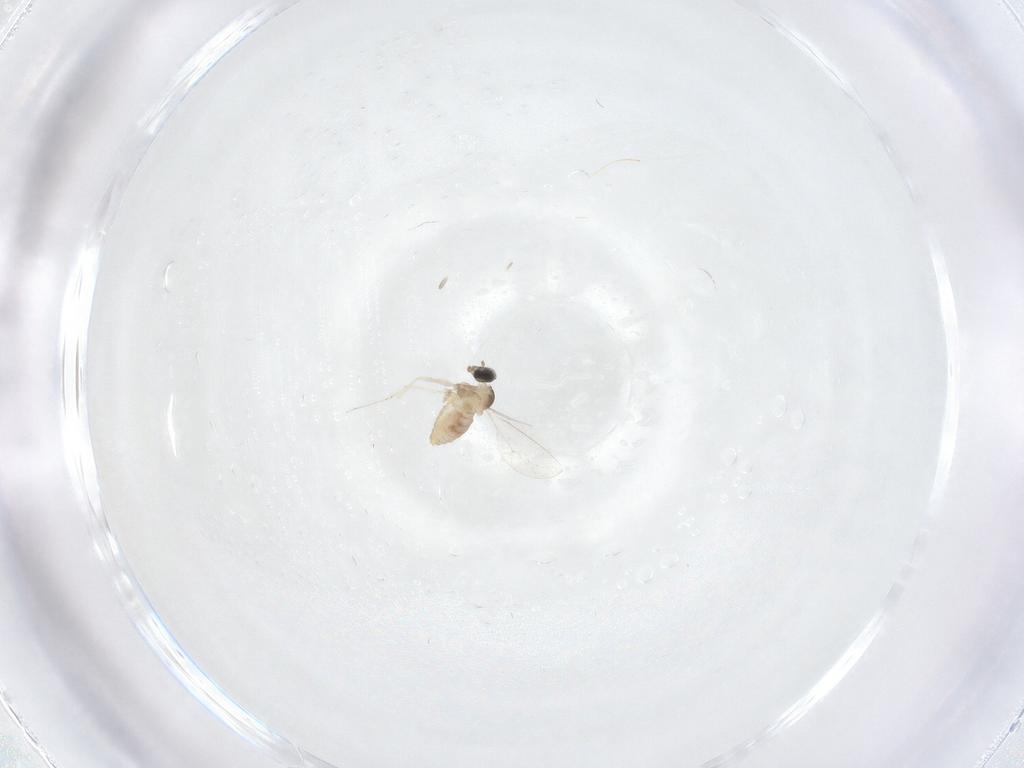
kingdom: Animalia
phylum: Arthropoda
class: Insecta
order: Diptera
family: Psychodidae
